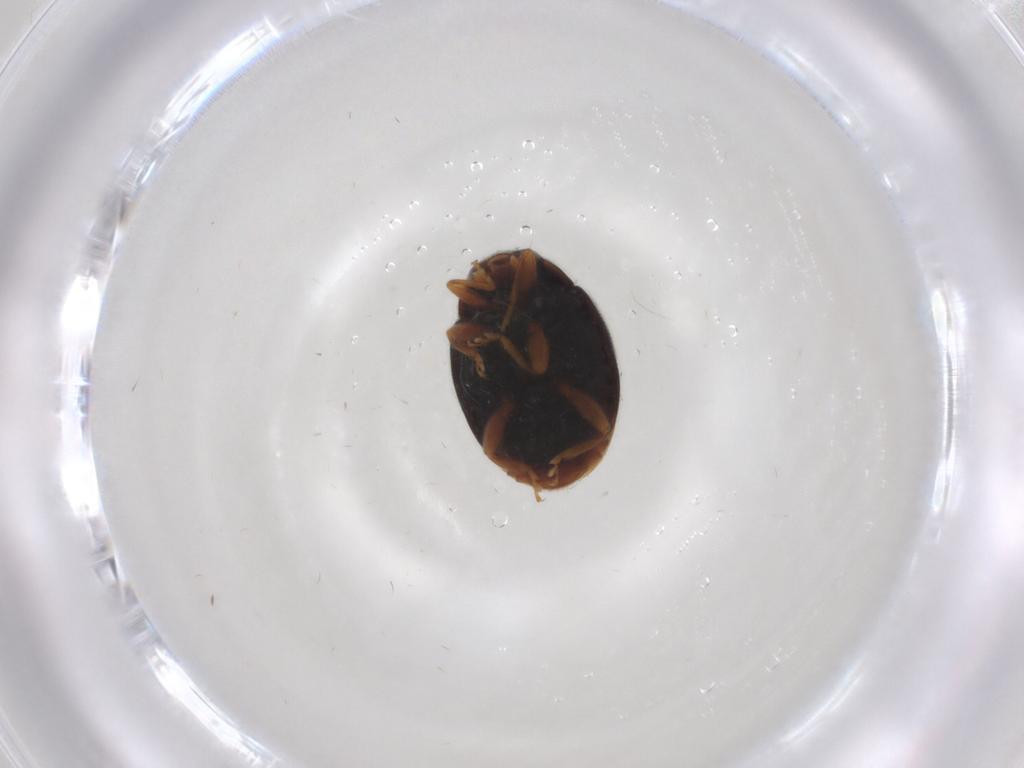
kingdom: Animalia
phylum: Arthropoda
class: Insecta
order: Coleoptera
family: Coccinellidae
